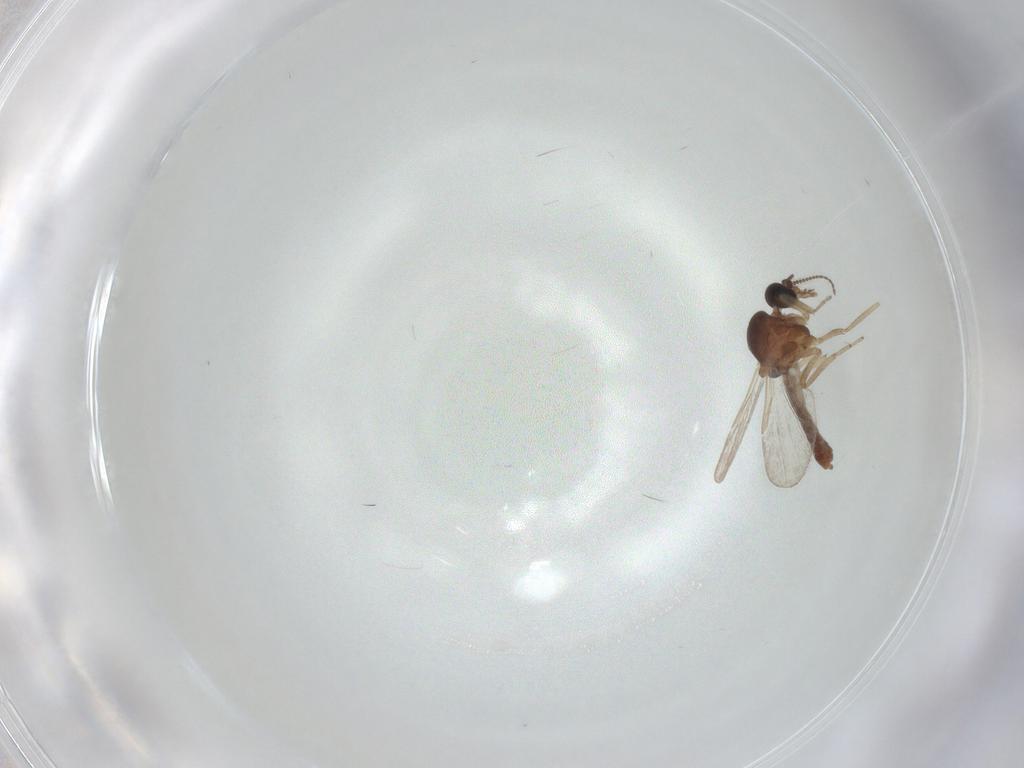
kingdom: Animalia
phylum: Arthropoda
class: Insecta
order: Diptera
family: Ceratopogonidae
